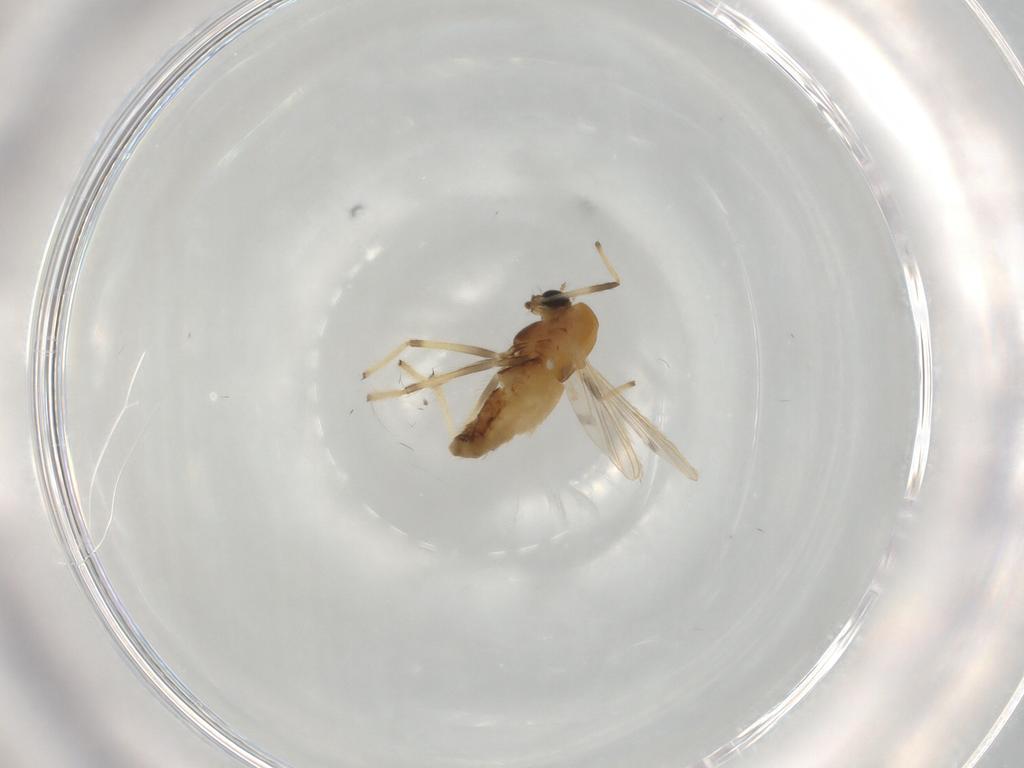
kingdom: Animalia
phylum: Arthropoda
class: Insecta
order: Diptera
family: Chironomidae
